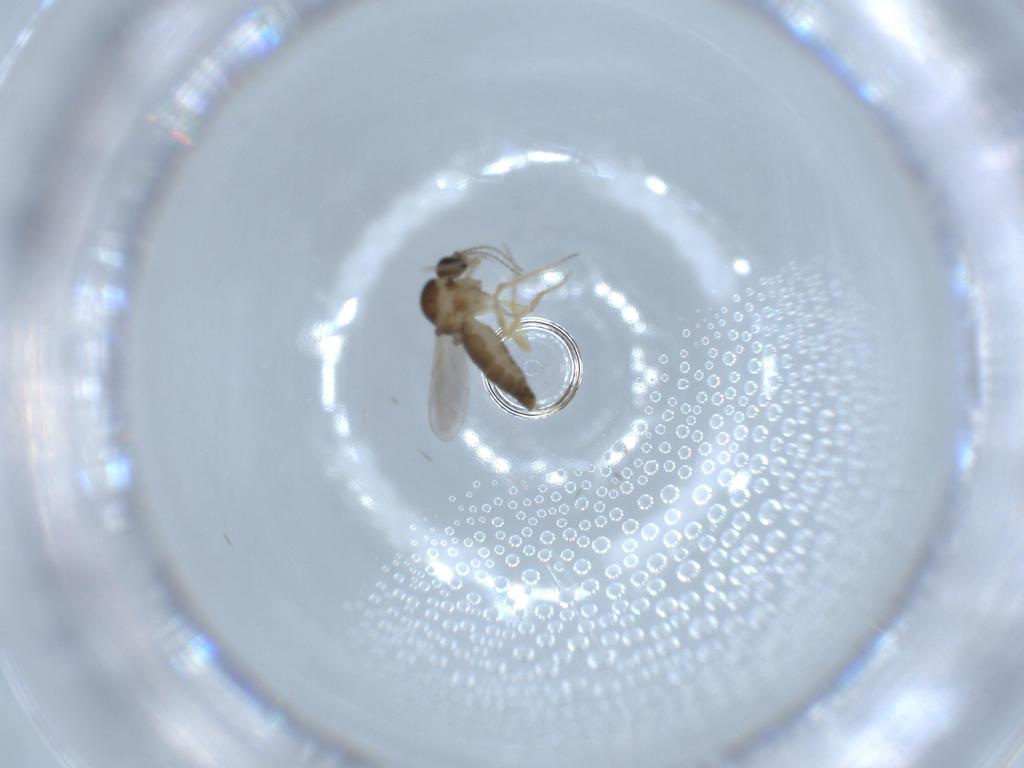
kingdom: Animalia
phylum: Arthropoda
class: Insecta
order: Diptera
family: Ceratopogonidae
